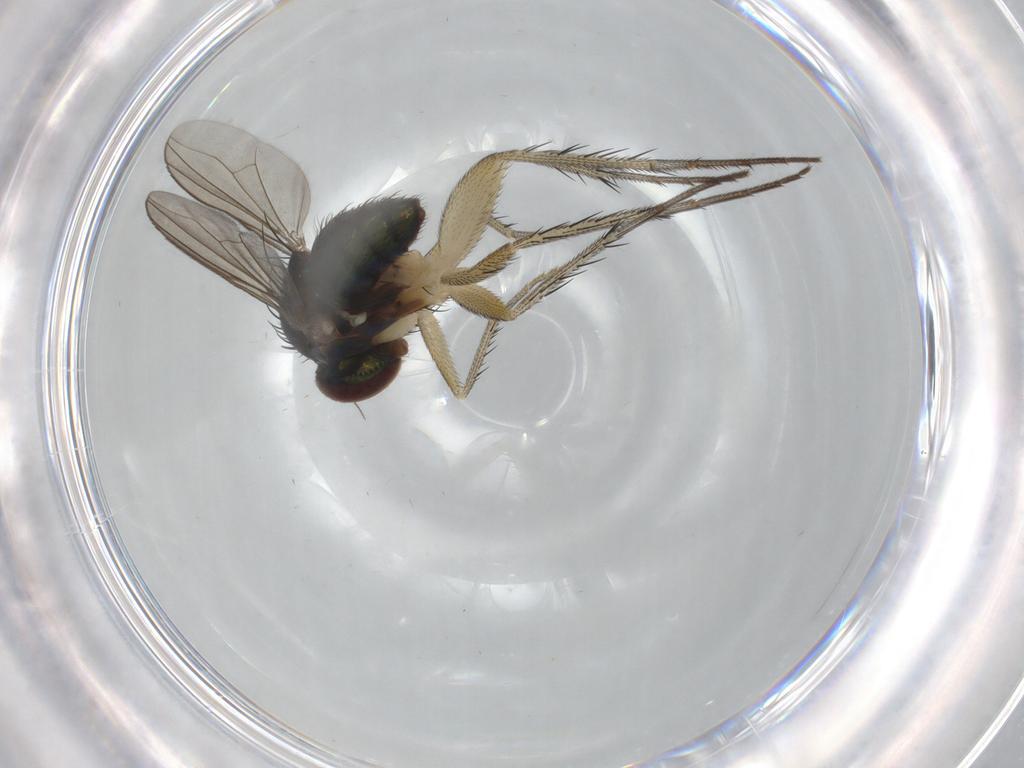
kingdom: Animalia
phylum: Arthropoda
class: Insecta
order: Diptera
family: Dolichopodidae
